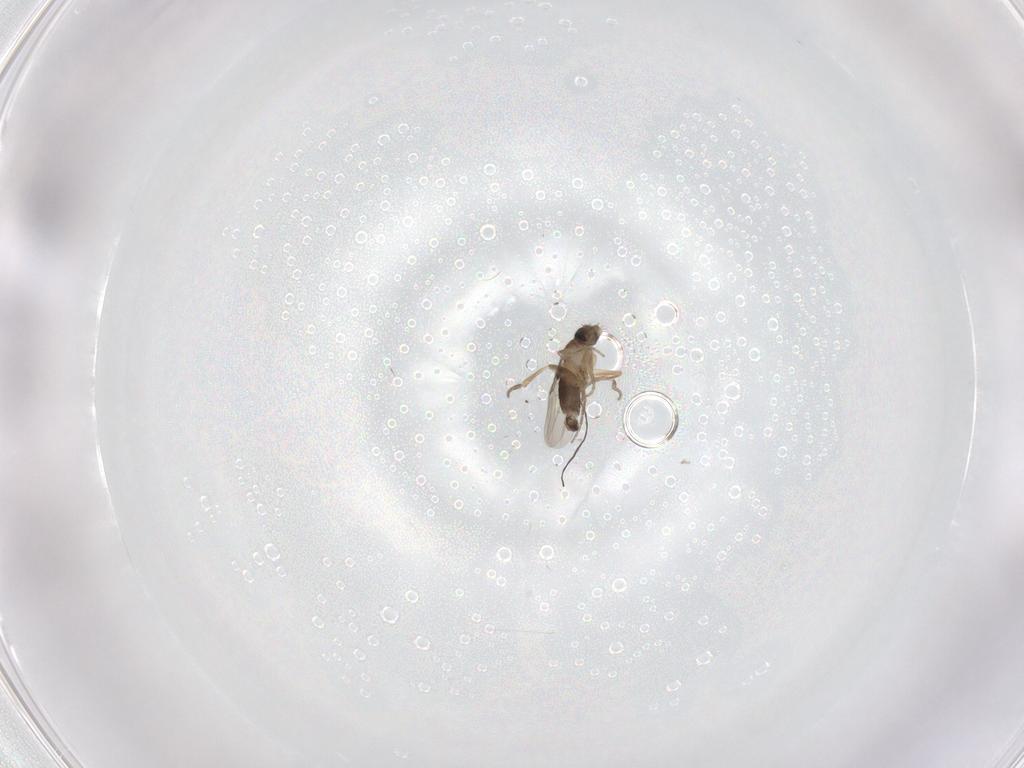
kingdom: Animalia
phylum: Arthropoda
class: Insecta
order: Diptera
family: Phoridae
